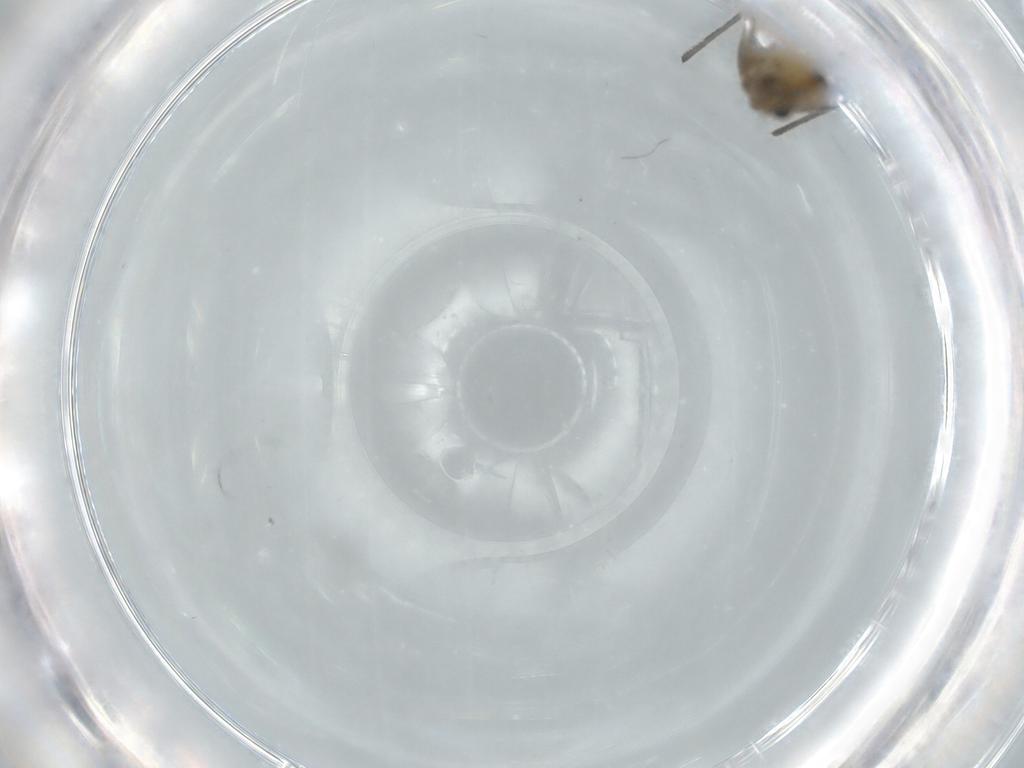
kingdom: Animalia
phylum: Arthropoda
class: Insecta
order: Diptera
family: Chironomidae
